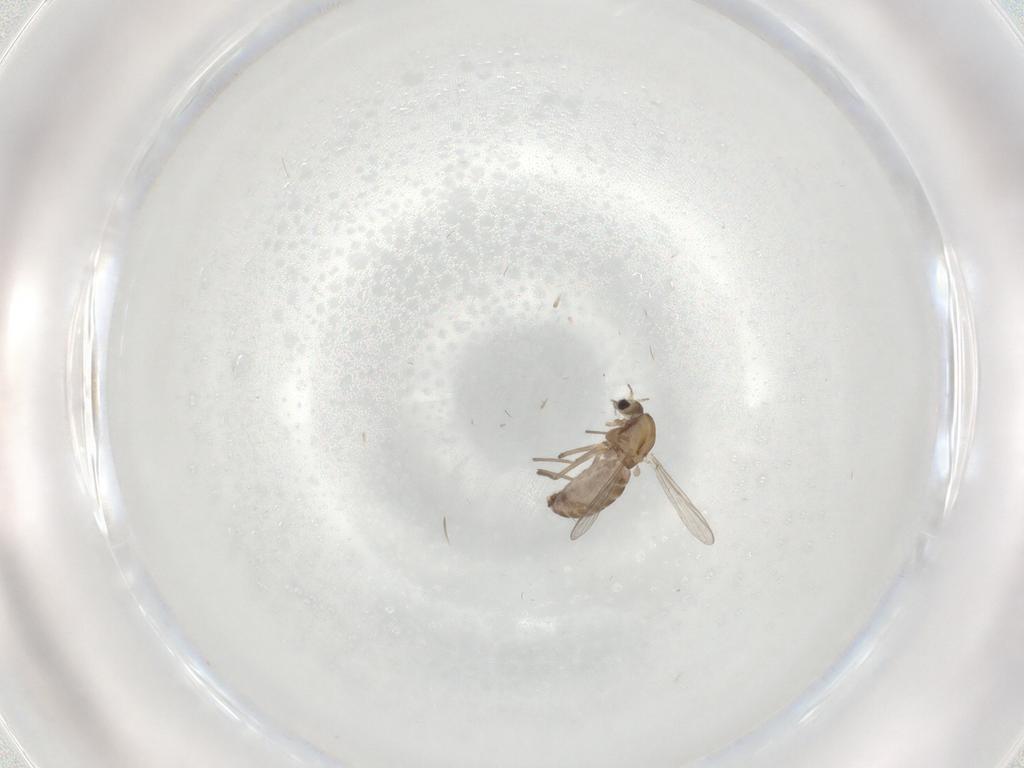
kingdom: Animalia
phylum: Arthropoda
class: Insecta
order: Diptera
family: Chironomidae
